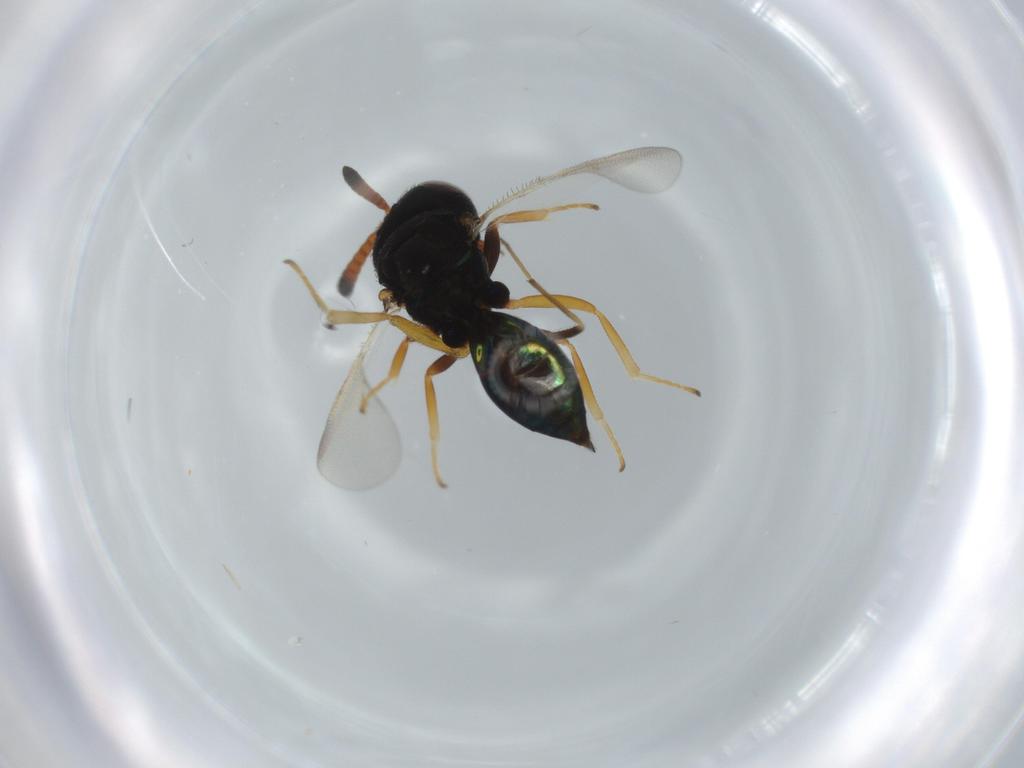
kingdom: Animalia
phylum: Arthropoda
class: Insecta
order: Hymenoptera
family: Pteromalidae
